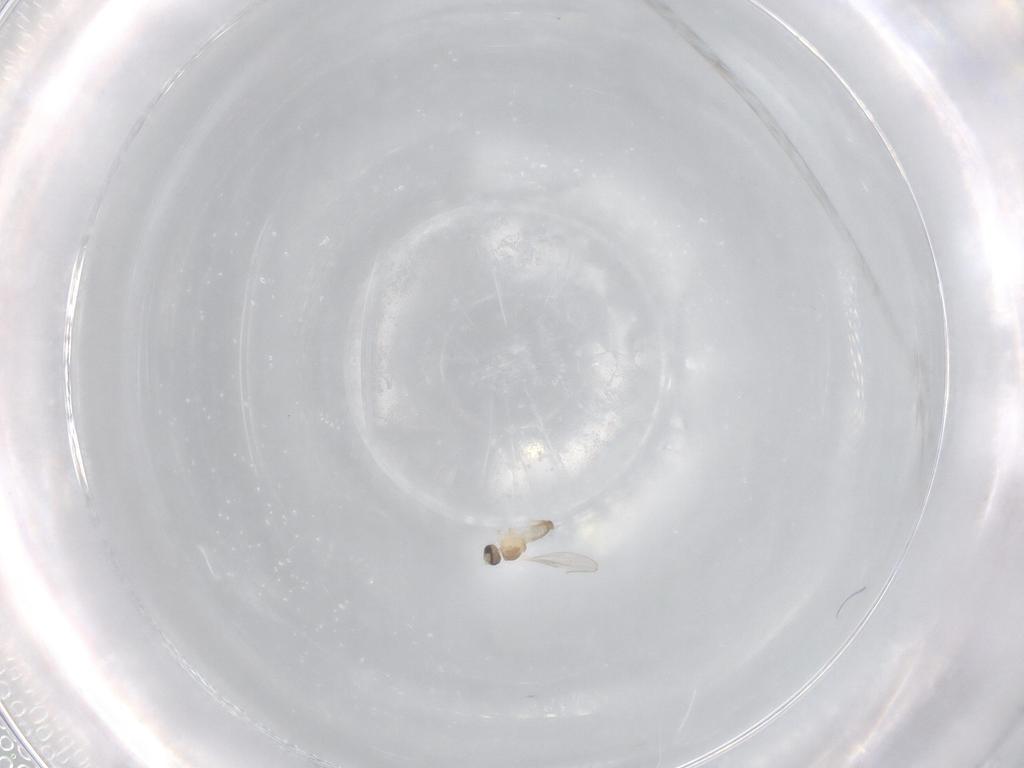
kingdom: Animalia
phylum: Arthropoda
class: Insecta
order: Diptera
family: Cecidomyiidae
